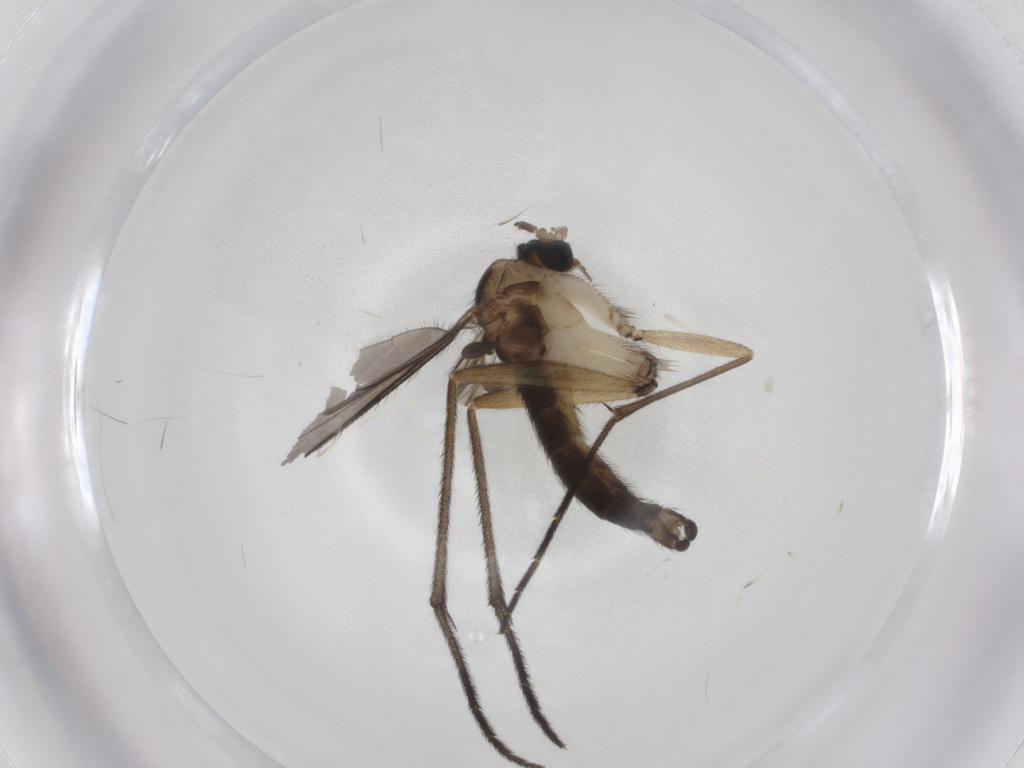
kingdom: Animalia
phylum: Arthropoda
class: Insecta
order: Diptera
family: Sciaridae
